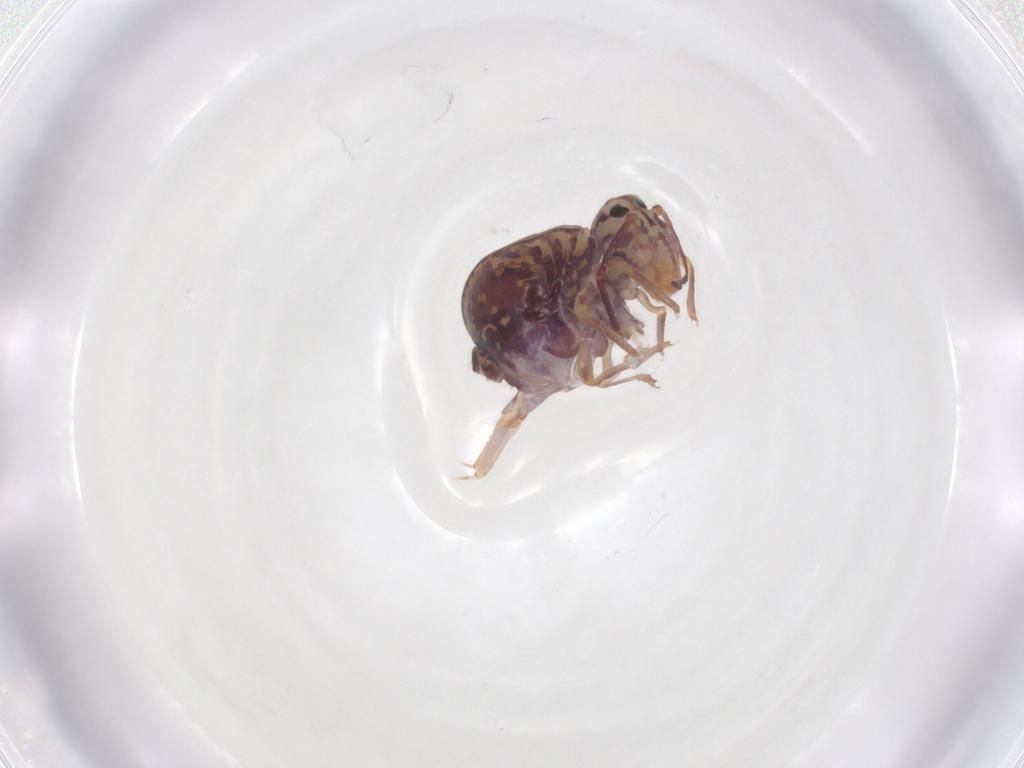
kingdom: Animalia
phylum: Arthropoda
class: Collembola
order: Symphypleona
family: Dicyrtomidae
